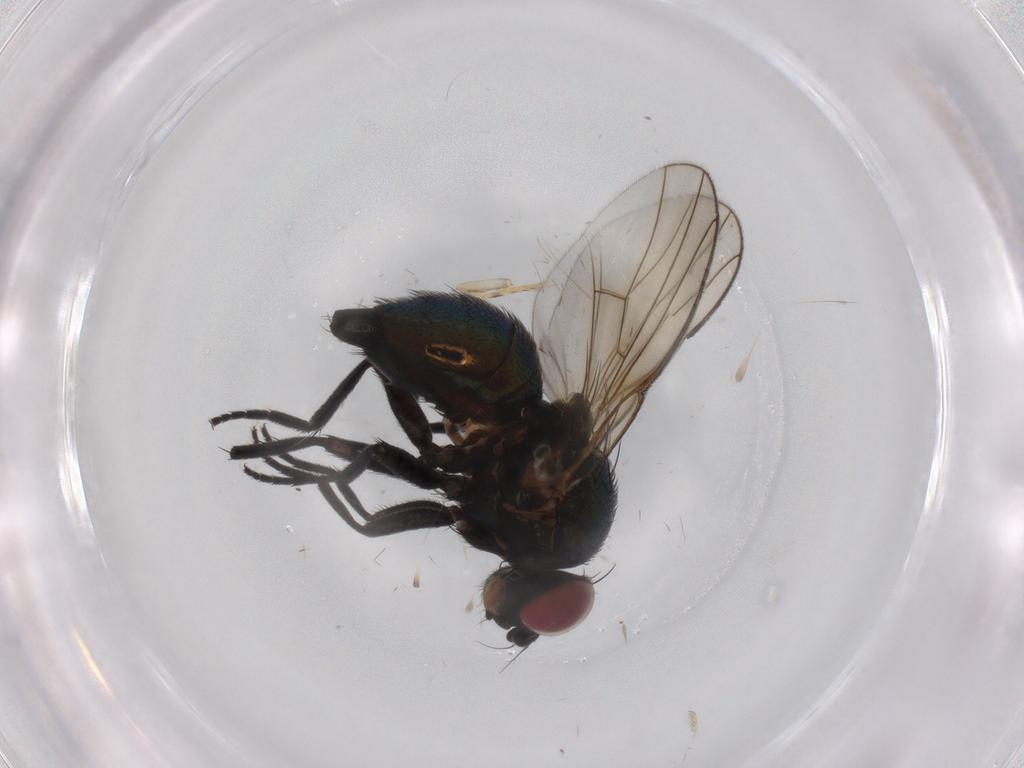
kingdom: Animalia
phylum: Arthropoda
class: Insecta
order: Diptera
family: Agromyzidae
